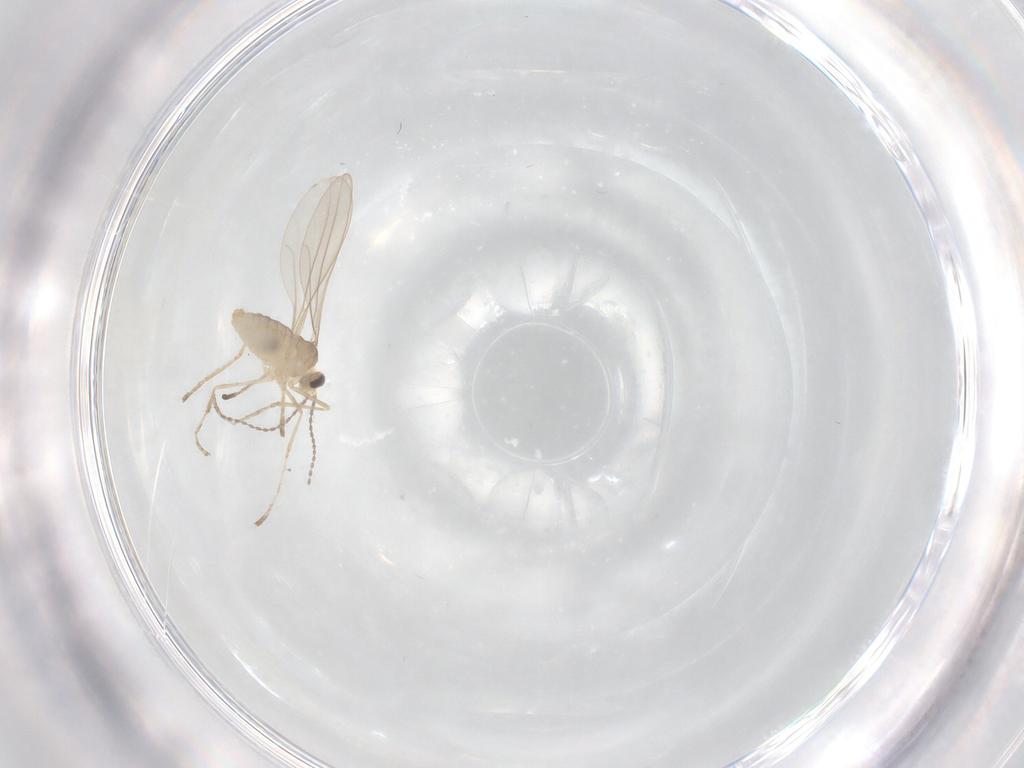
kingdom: Animalia
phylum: Arthropoda
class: Insecta
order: Diptera
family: Cecidomyiidae
